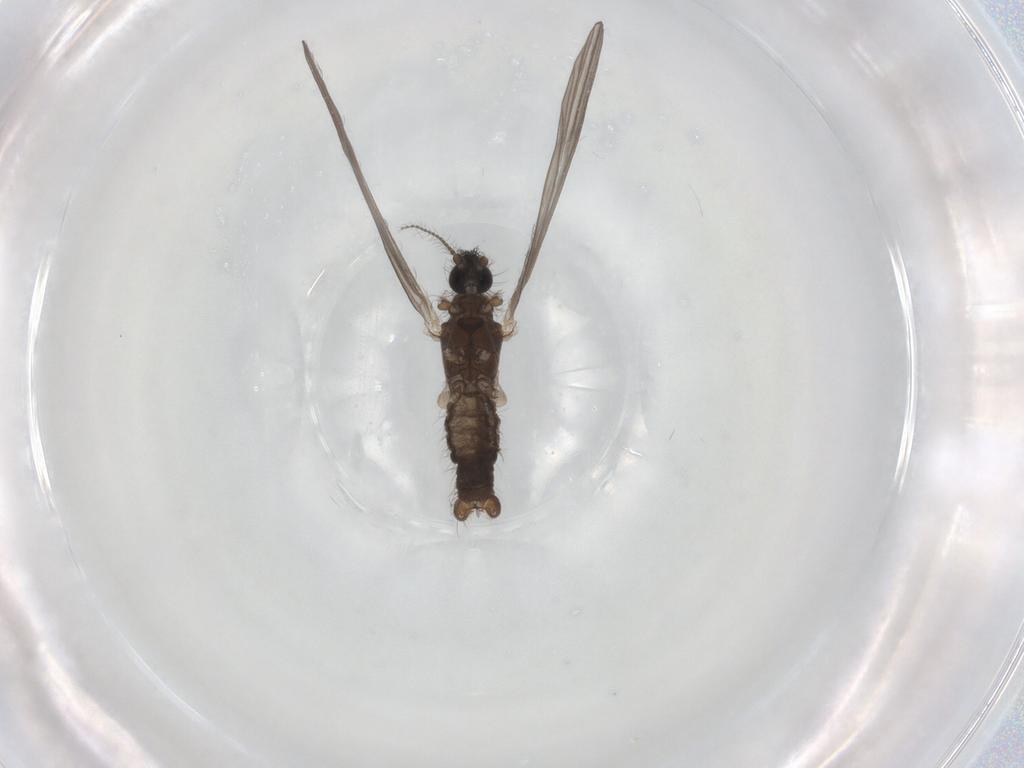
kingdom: Animalia
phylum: Arthropoda
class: Insecta
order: Diptera
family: Limoniidae
